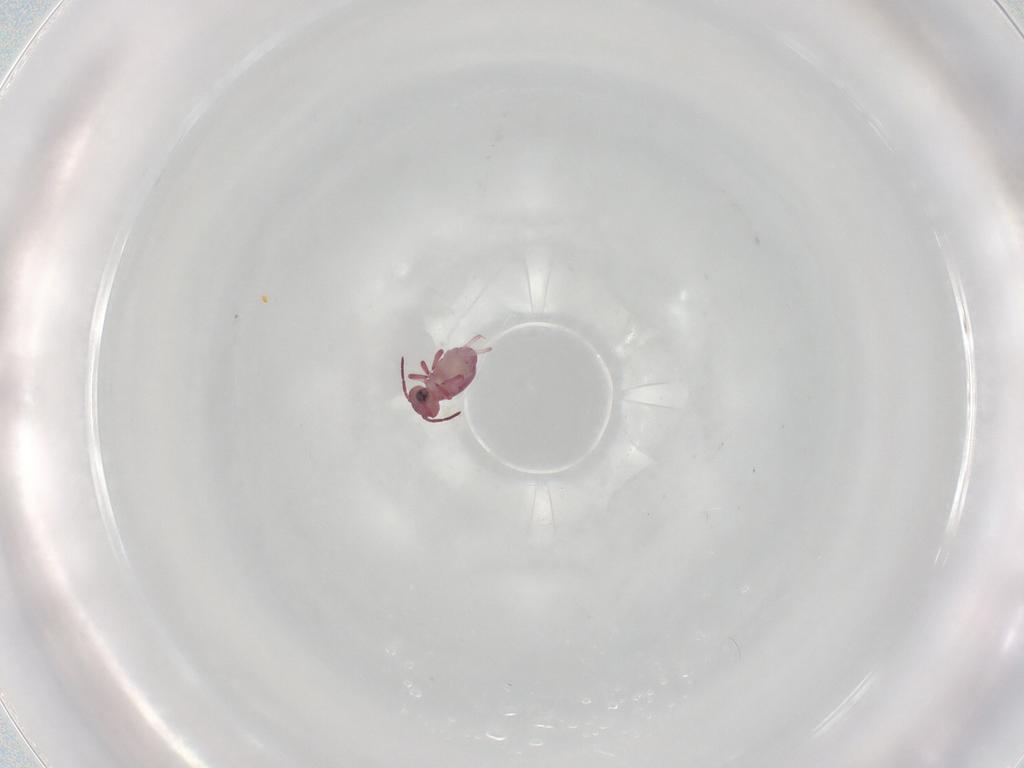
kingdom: Animalia
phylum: Arthropoda
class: Collembola
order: Symphypleona
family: Sminthurididae
